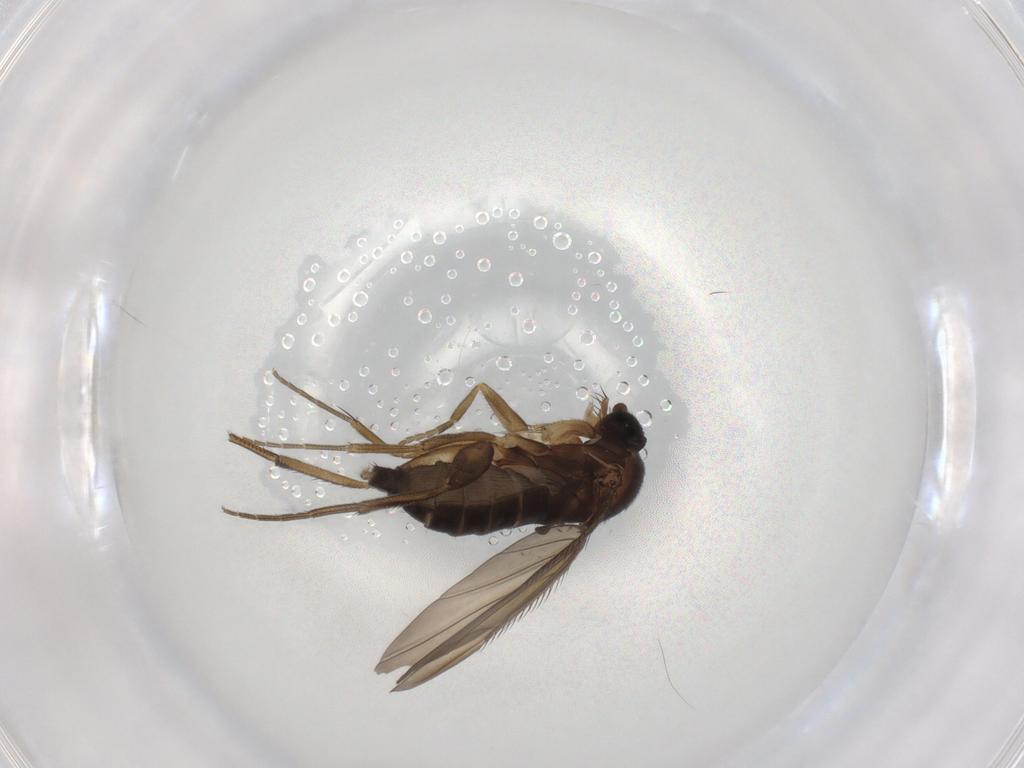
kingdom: Animalia
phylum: Arthropoda
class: Insecta
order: Diptera
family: Phoridae
